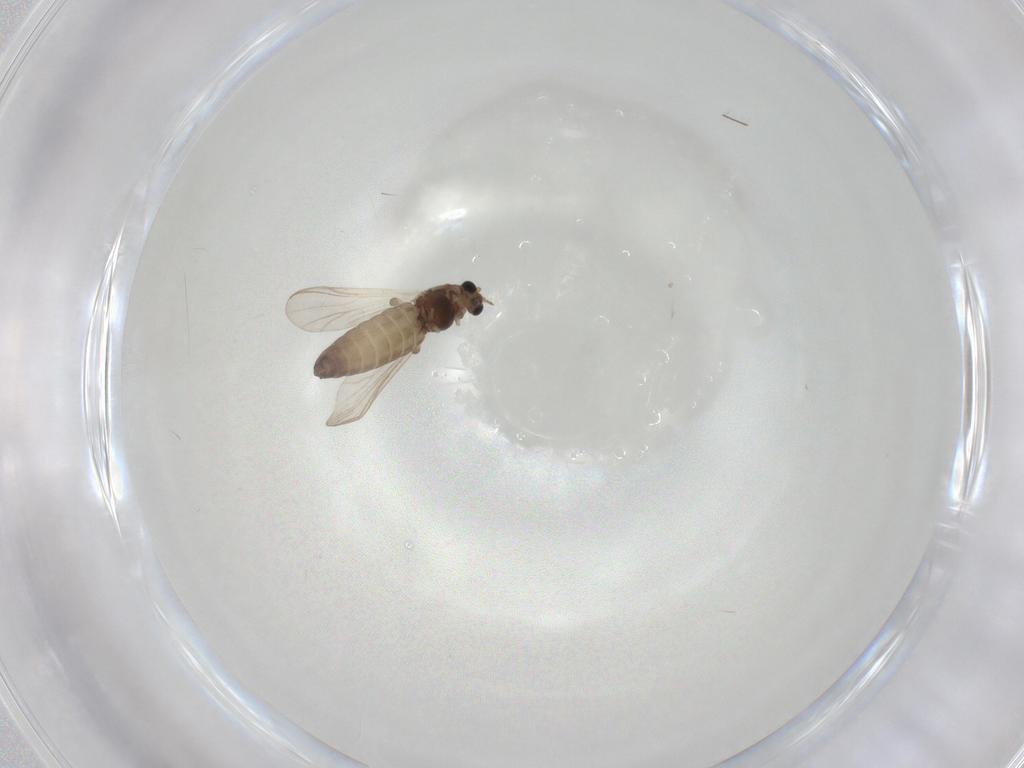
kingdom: Animalia
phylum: Arthropoda
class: Insecta
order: Diptera
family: Chironomidae
